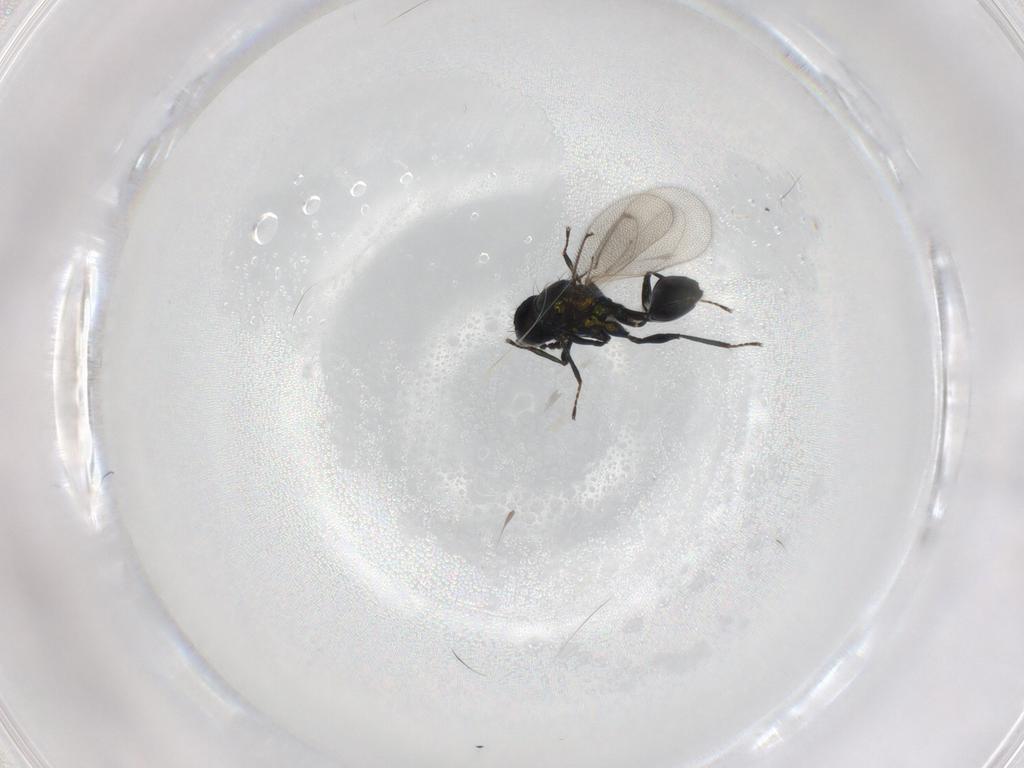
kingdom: Animalia
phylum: Arthropoda
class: Insecta
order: Hymenoptera
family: Eulophidae
